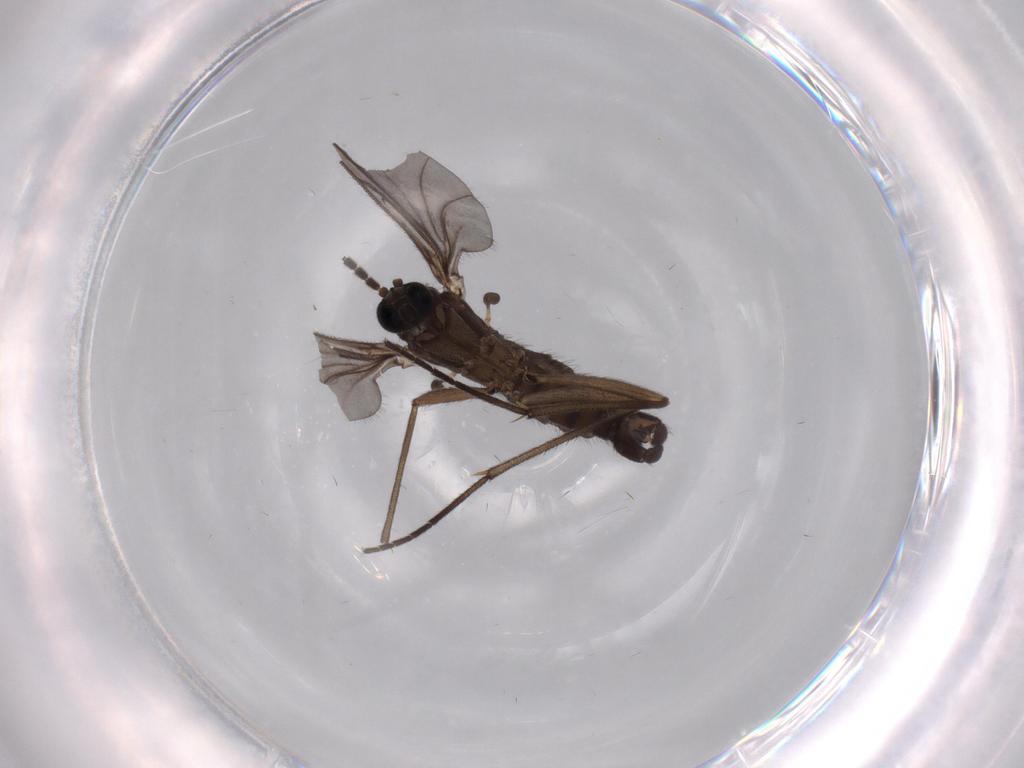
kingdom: Animalia
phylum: Arthropoda
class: Insecta
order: Diptera
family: Sciaridae
